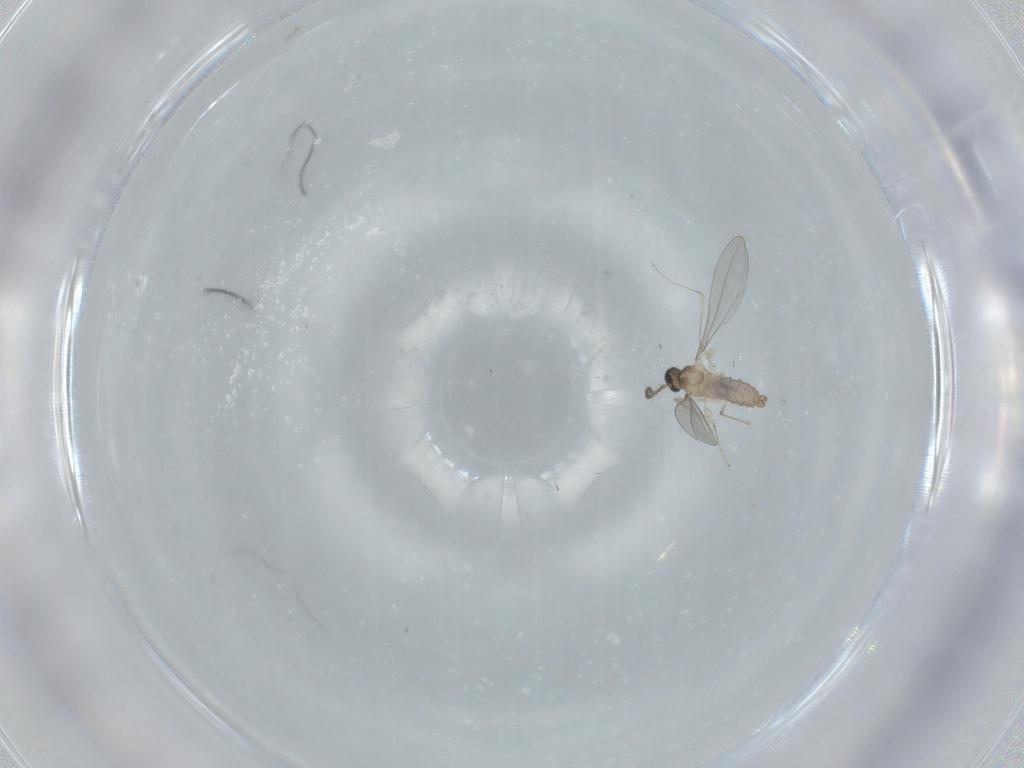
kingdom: Animalia
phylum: Arthropoda
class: Insecta
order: Diptera
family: Cecidomyiidae
